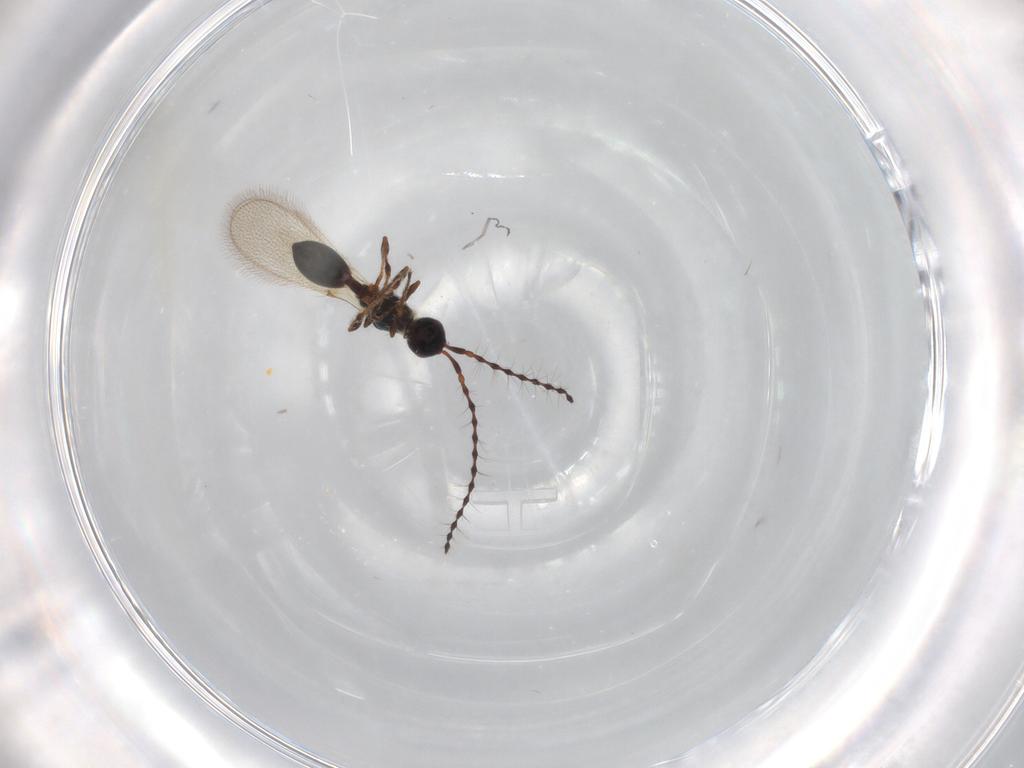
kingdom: Animalia
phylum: Arthropoda
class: Insecta
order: Hymenoptera
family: Diapriidae
